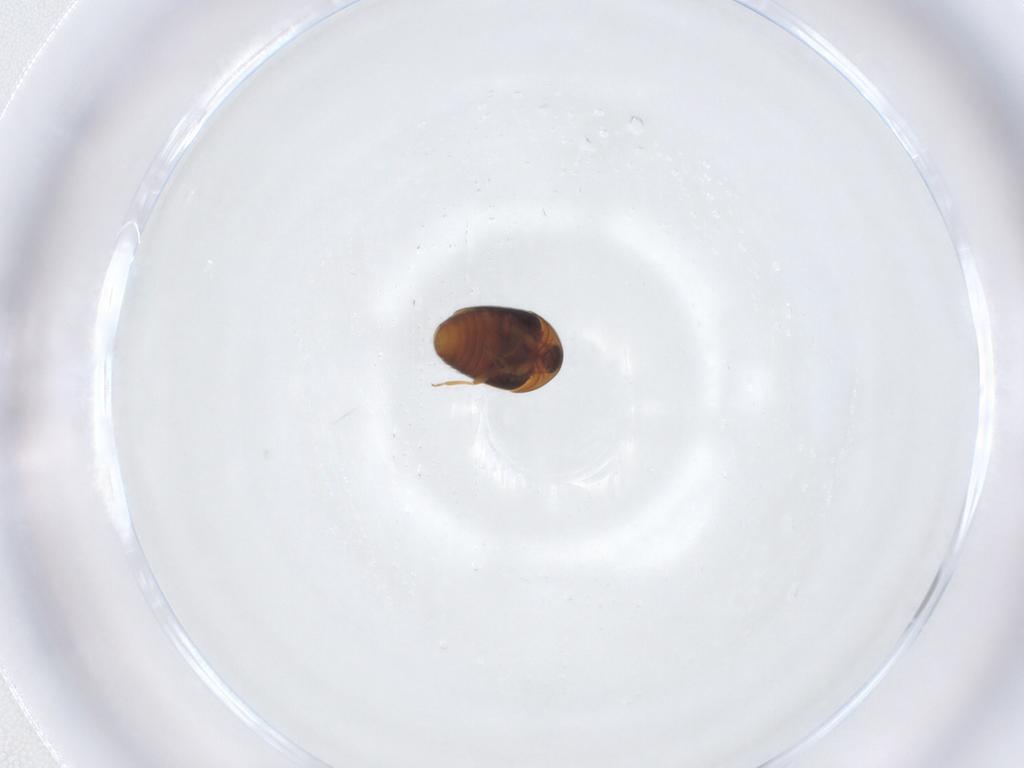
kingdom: Animalia
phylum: Arthropoda
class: Insecta
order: Coleoptera
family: Corylophidae
